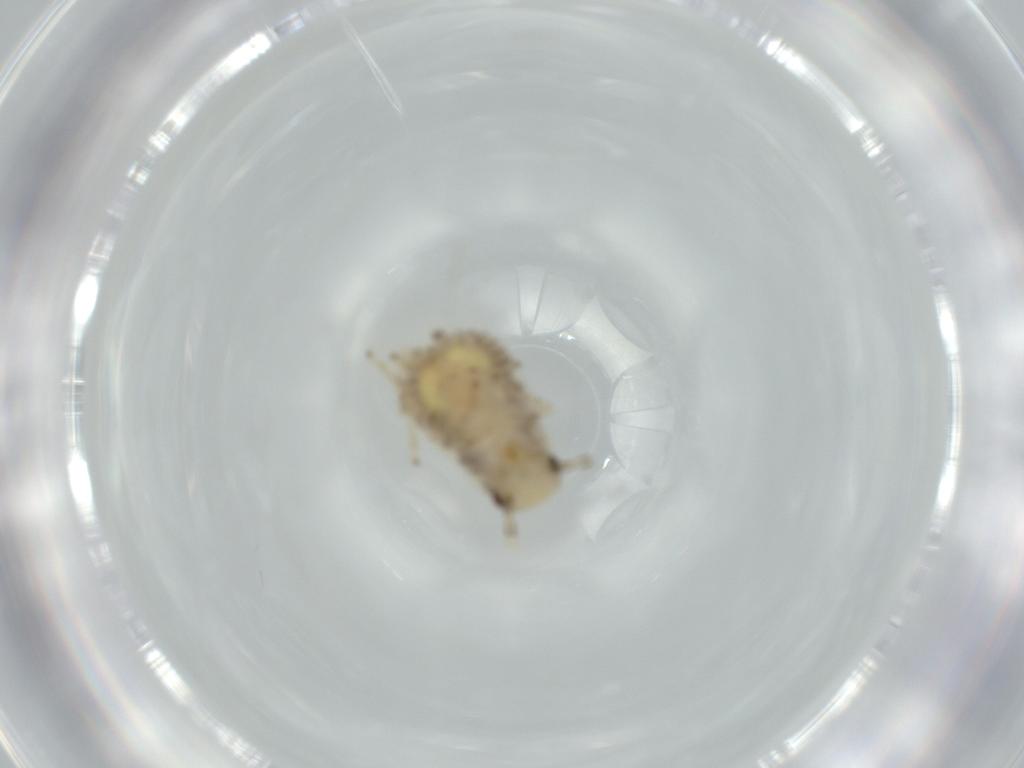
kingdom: Animalia
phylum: Arthropoda
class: Insecta
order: Blattodea
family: Ectobiidae
